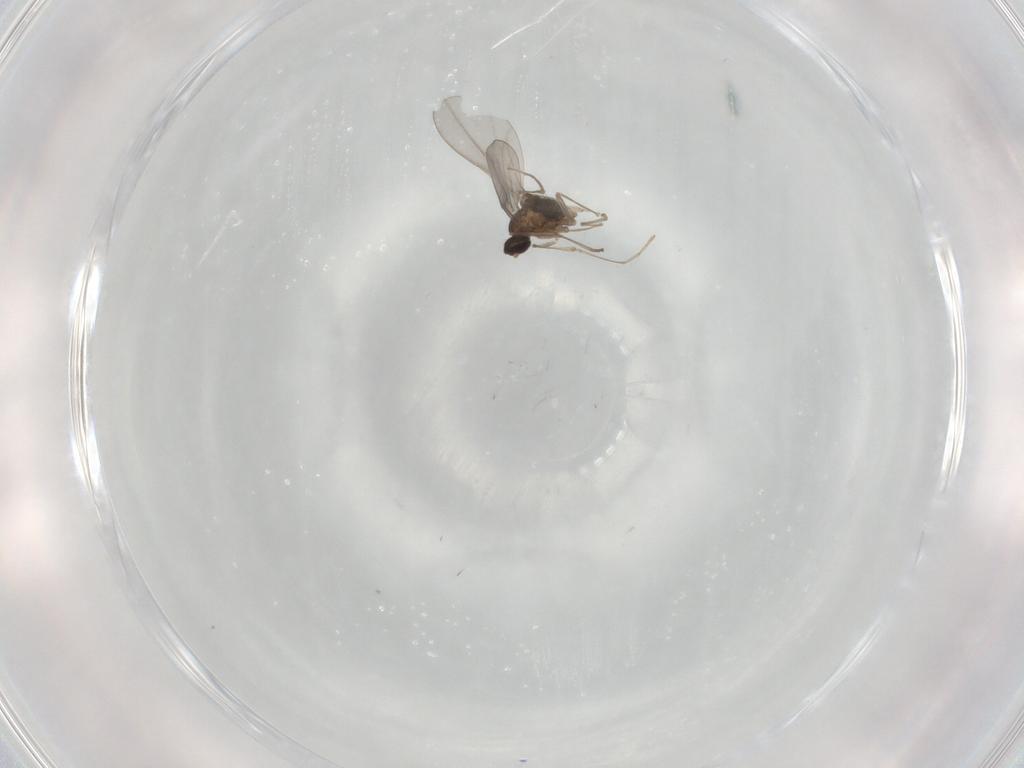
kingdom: Animalia
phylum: Arthropoda
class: Insecta
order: Diptera
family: Cecidomyiidae
